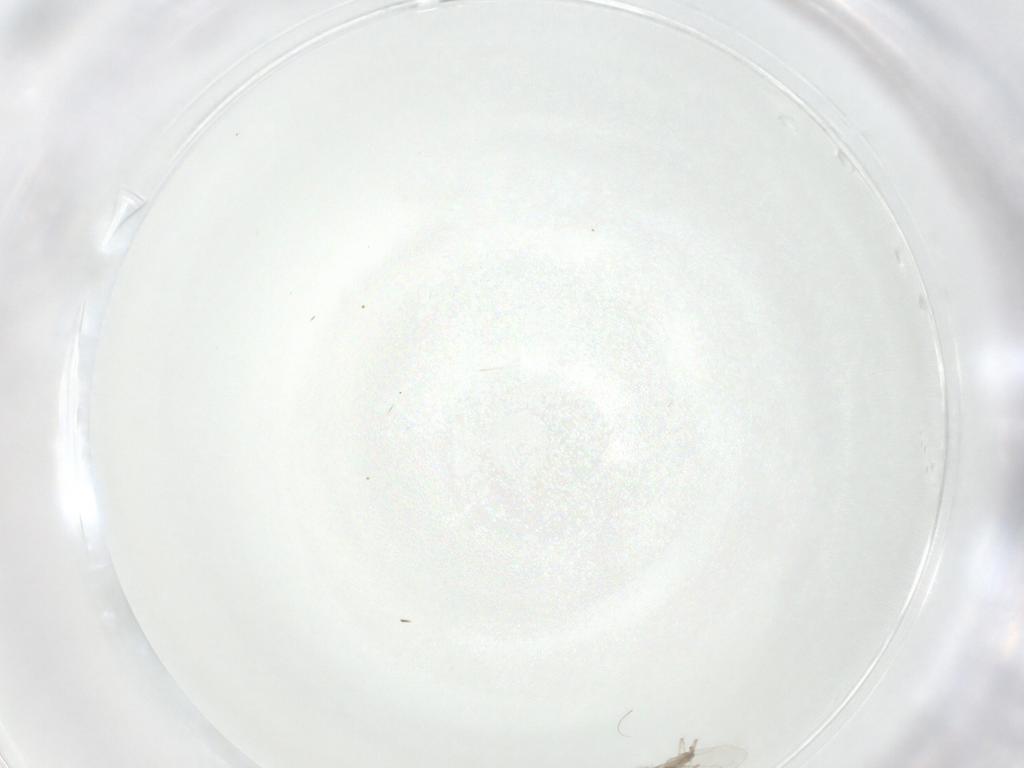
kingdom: Animalia
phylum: Arthropoda
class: Insecta
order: Diptera
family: Cecidomyiidae
